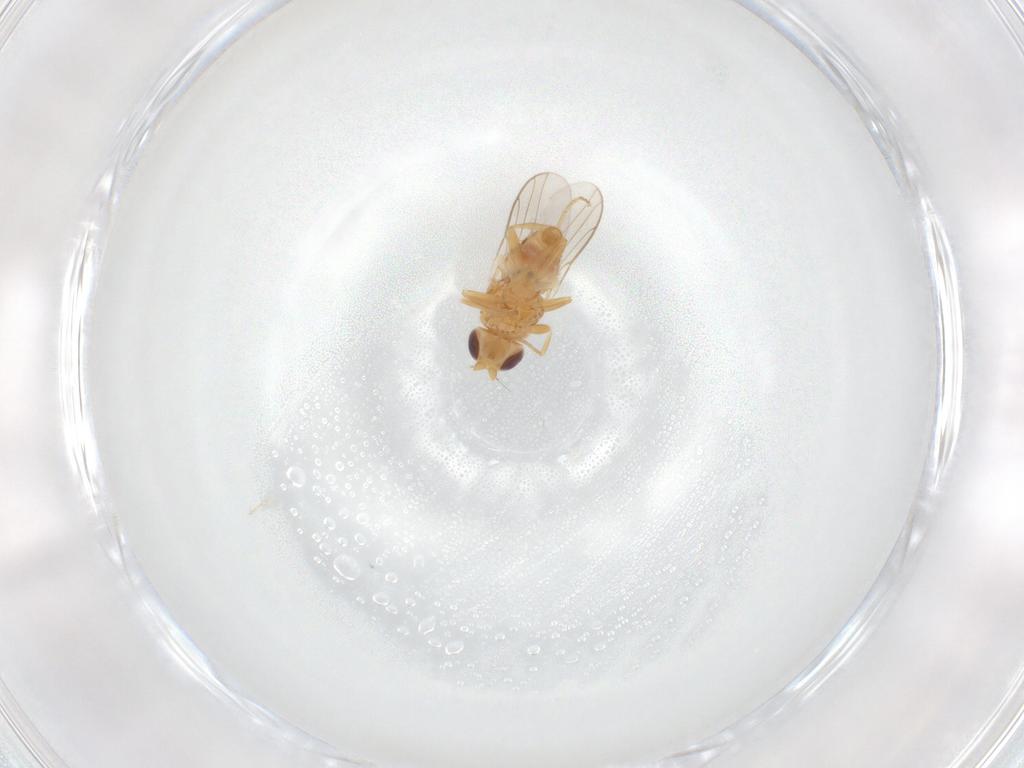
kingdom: Animalia
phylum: Arthropoda
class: Insecta
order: Diptera
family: Chloropidae
